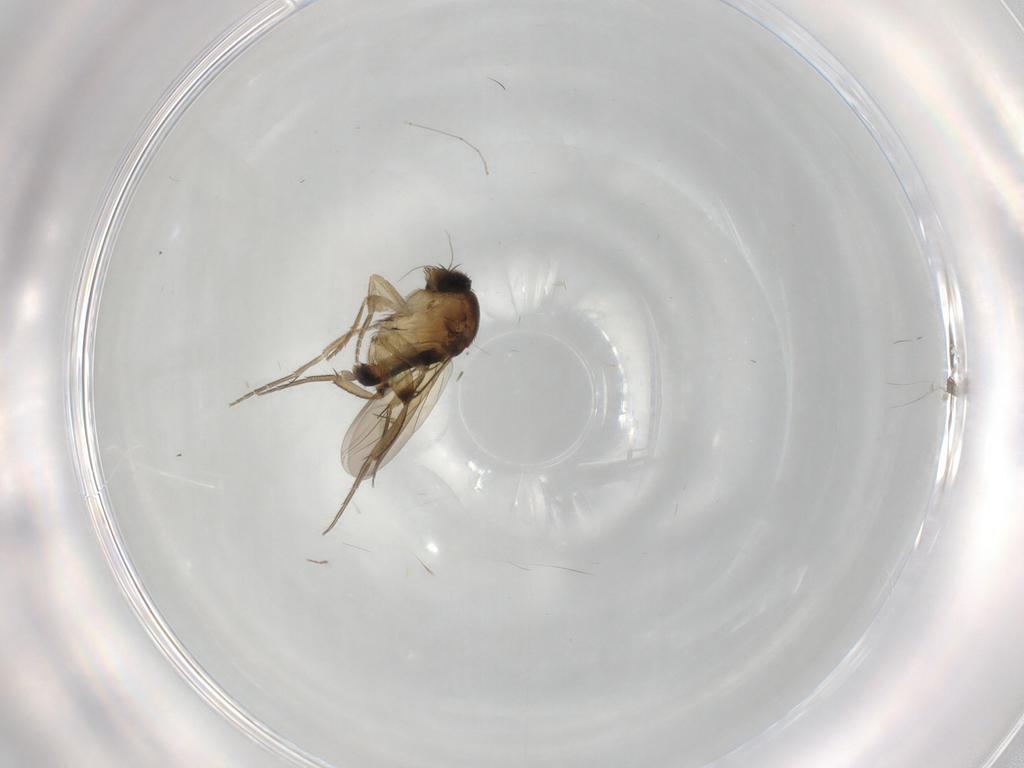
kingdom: Animalia
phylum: Arthropoda
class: Insecta
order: Diptera
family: Phoridae
